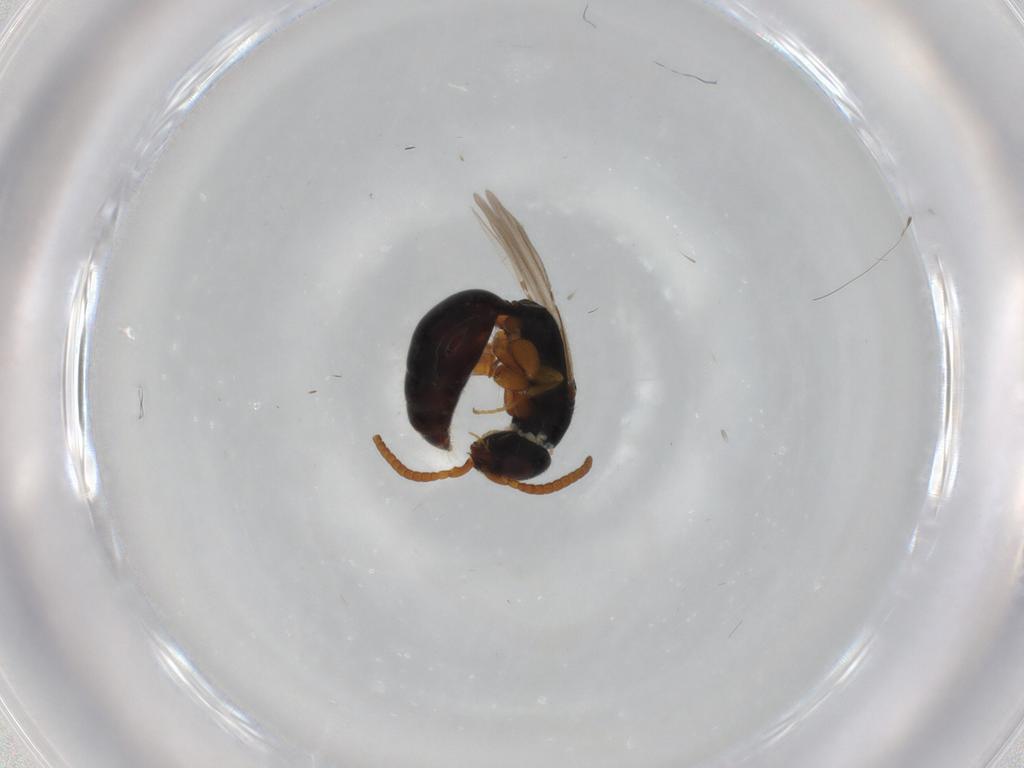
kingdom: Animalia
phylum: Arthropoda
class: Insecta
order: Hymenoptera
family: Bethylidae
